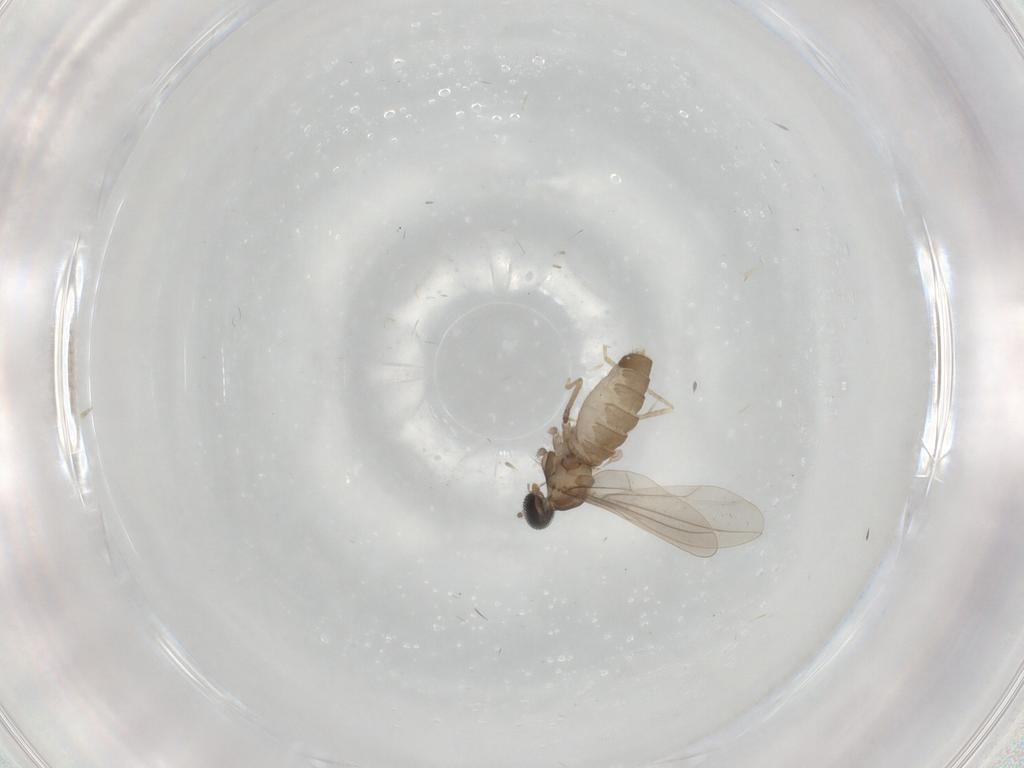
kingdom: Animalia
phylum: Arthropoda
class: Insecta
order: Diptera
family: Cecidomyiidae
